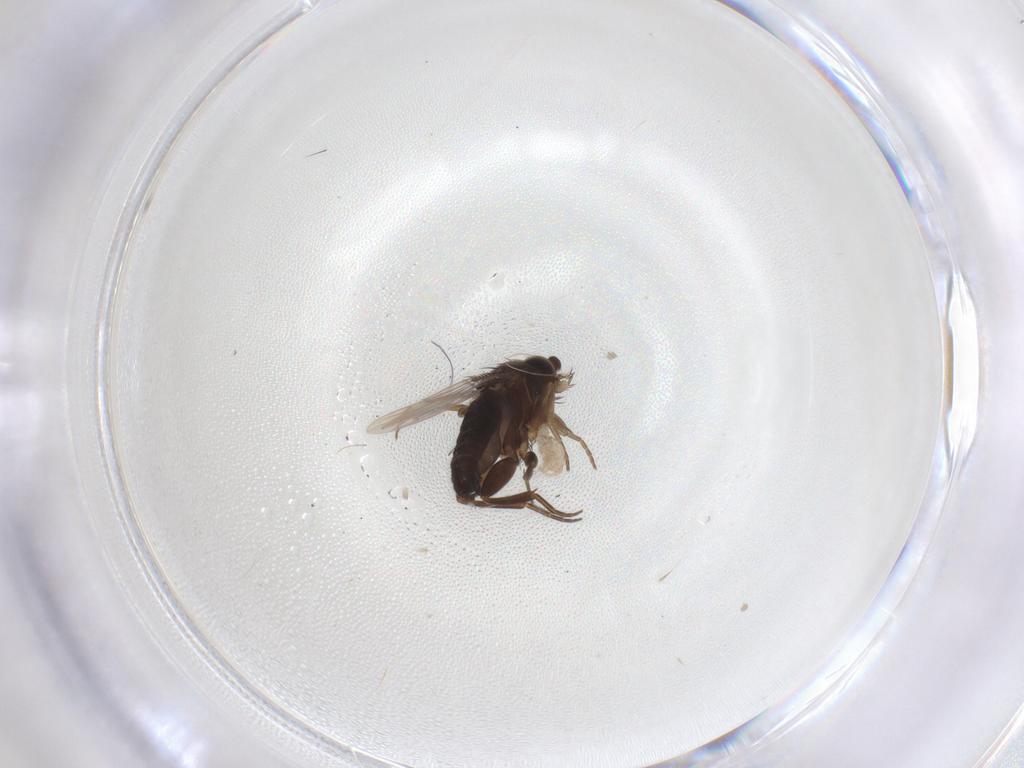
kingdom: Animalia
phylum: Arthropoda
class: Insecta
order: Diptera
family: Phoridae
